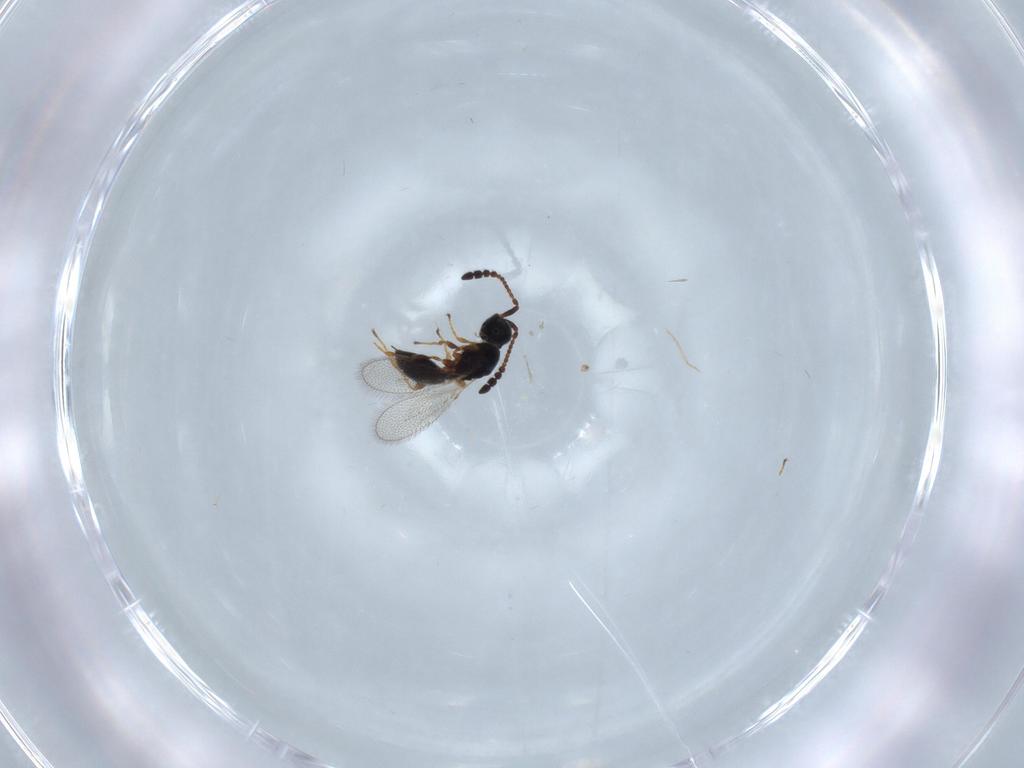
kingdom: Animalia
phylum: Arthropoda
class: Insecta
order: Hymenoptera
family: Diapriidae
